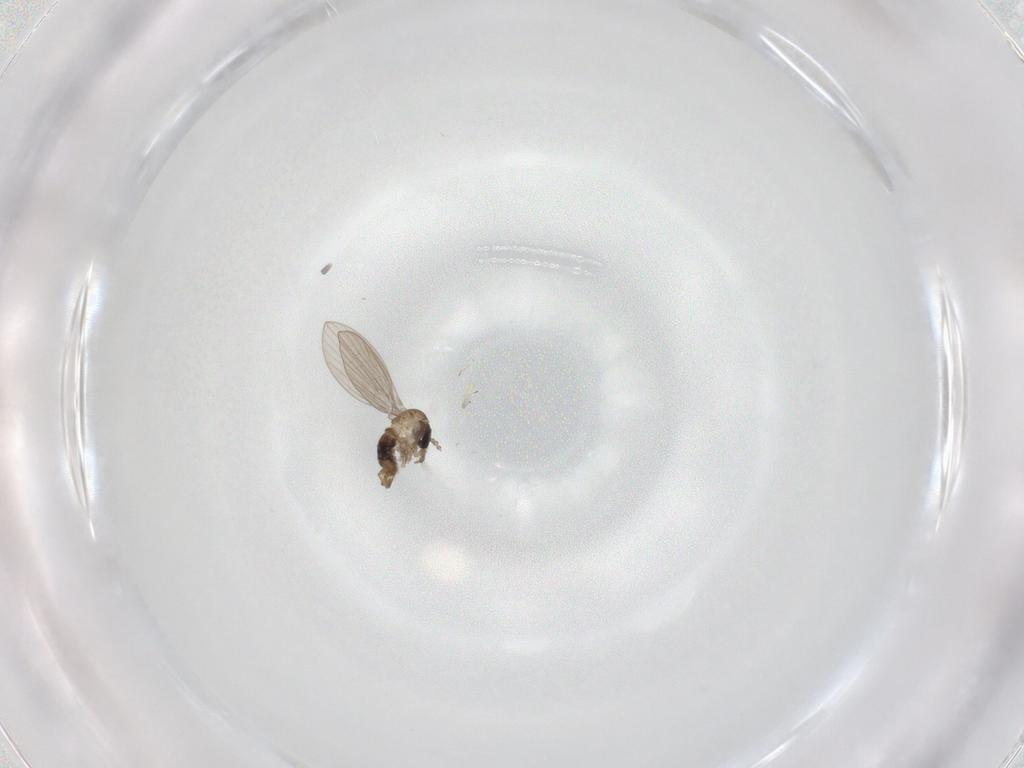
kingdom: Animalia
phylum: Arthropoda
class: Insecta
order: Diptera
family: Psychodidae
